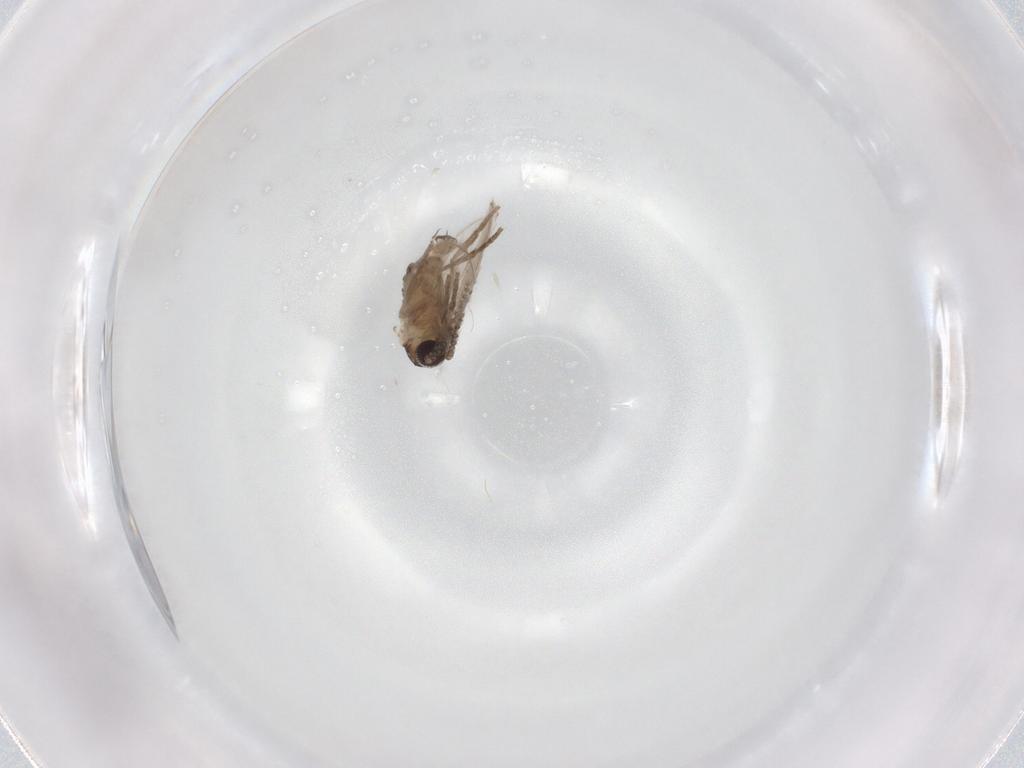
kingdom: Animalia
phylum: Arthropoda
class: Insecta
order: Diptera
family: Psychodidae
